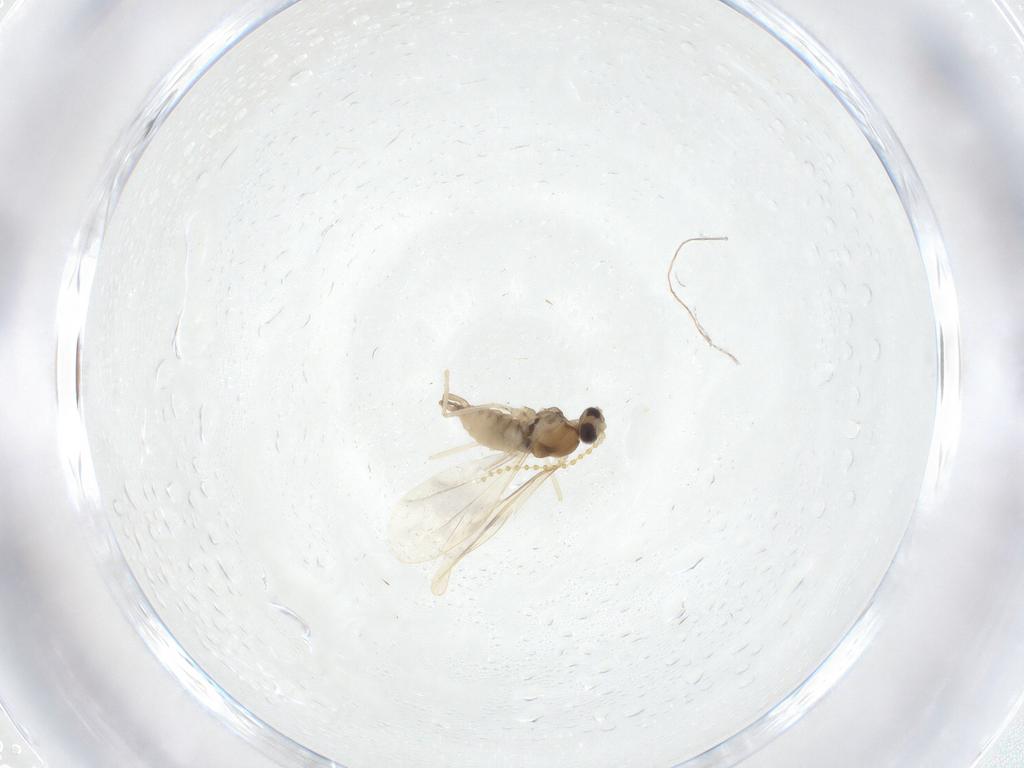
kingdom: Animalia
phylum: Arthropoda
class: Insecta
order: Diptera
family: Cecidomyiidae
